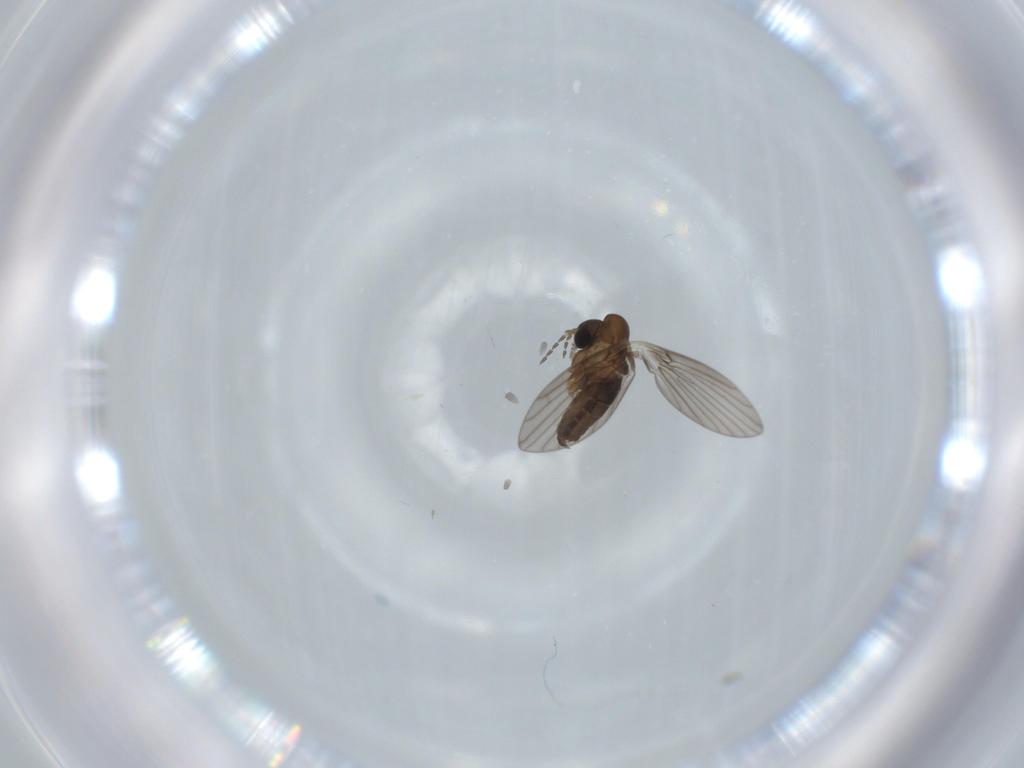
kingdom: Animalia
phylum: Arthropoda
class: Insecta
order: Diptera
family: Psychodidae
